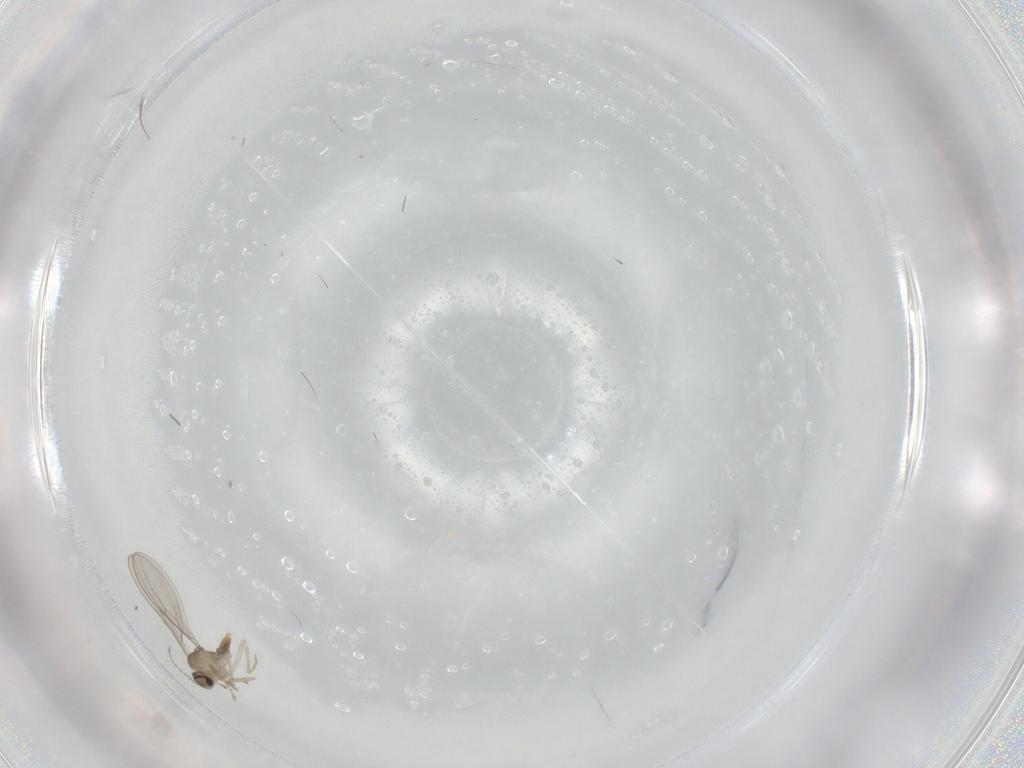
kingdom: Animalia
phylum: Arthropoda
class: Insecta
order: Diptera
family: Cecidomyiidae
